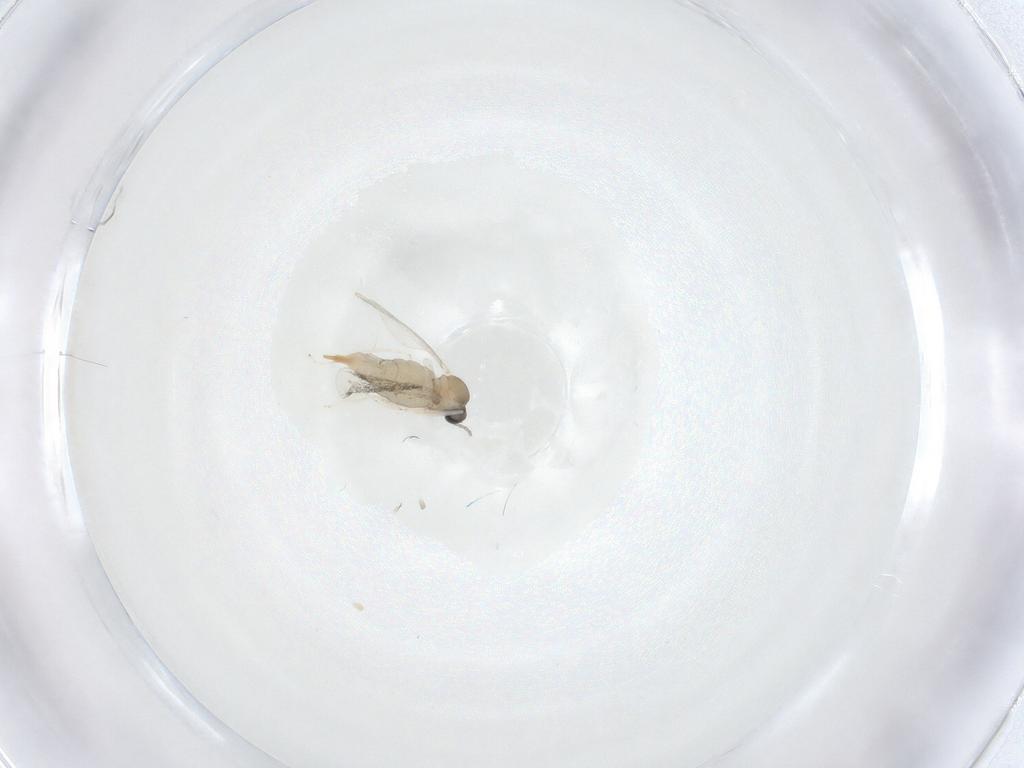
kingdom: Animalia
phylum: Arthropoda
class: Insecta
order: Diptera
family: Cecidomyiidae
